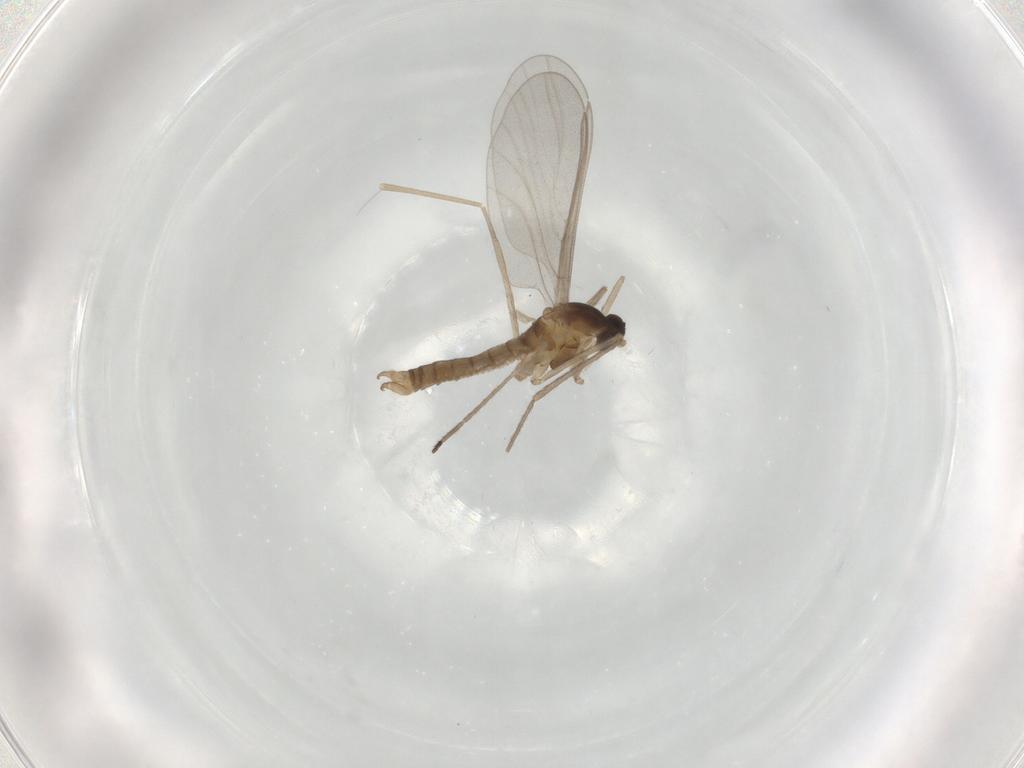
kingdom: Animalia
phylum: Arthropoda
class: Insecta
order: Diptera
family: Cecidomyiidae
